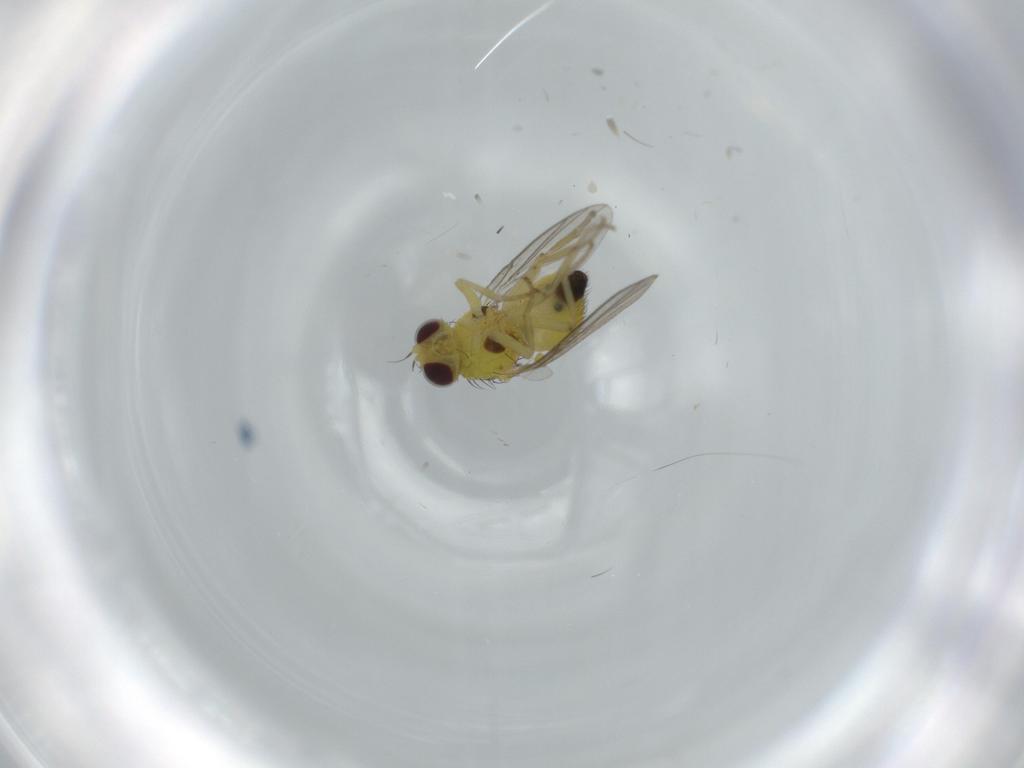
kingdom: Animalia
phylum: Arthropoda
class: Insecta
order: Diptera
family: Agromyzidae
